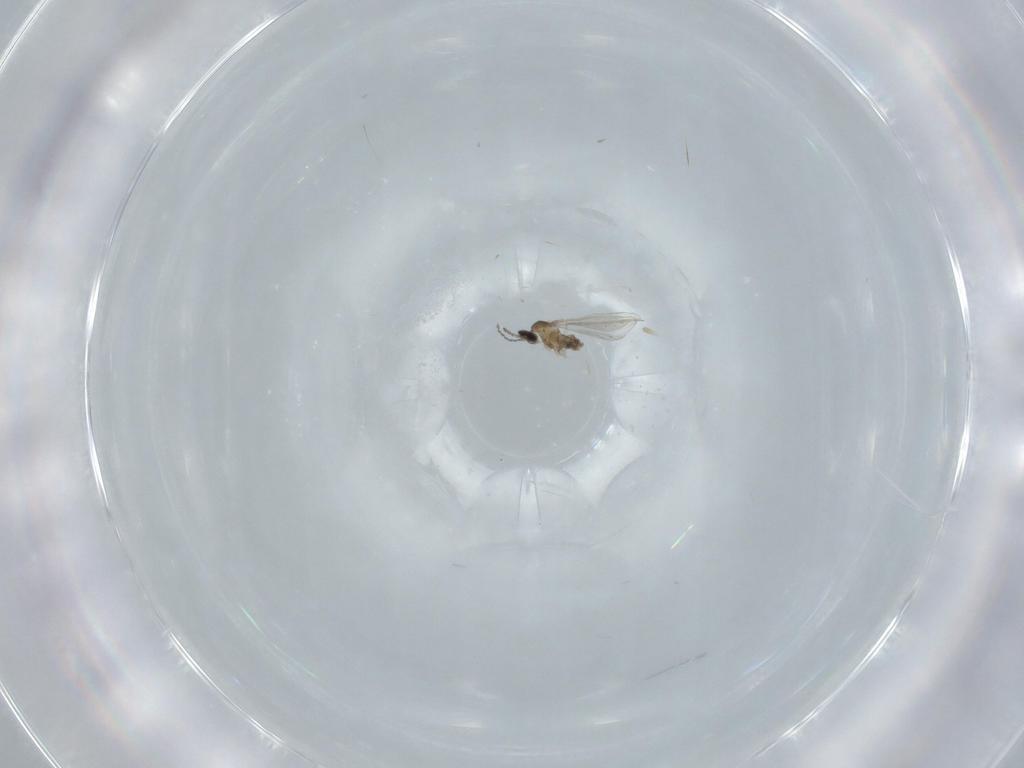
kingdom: Animalia
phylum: Arthropoda
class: Insecta
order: Diptera
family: Cecidomyiidae
